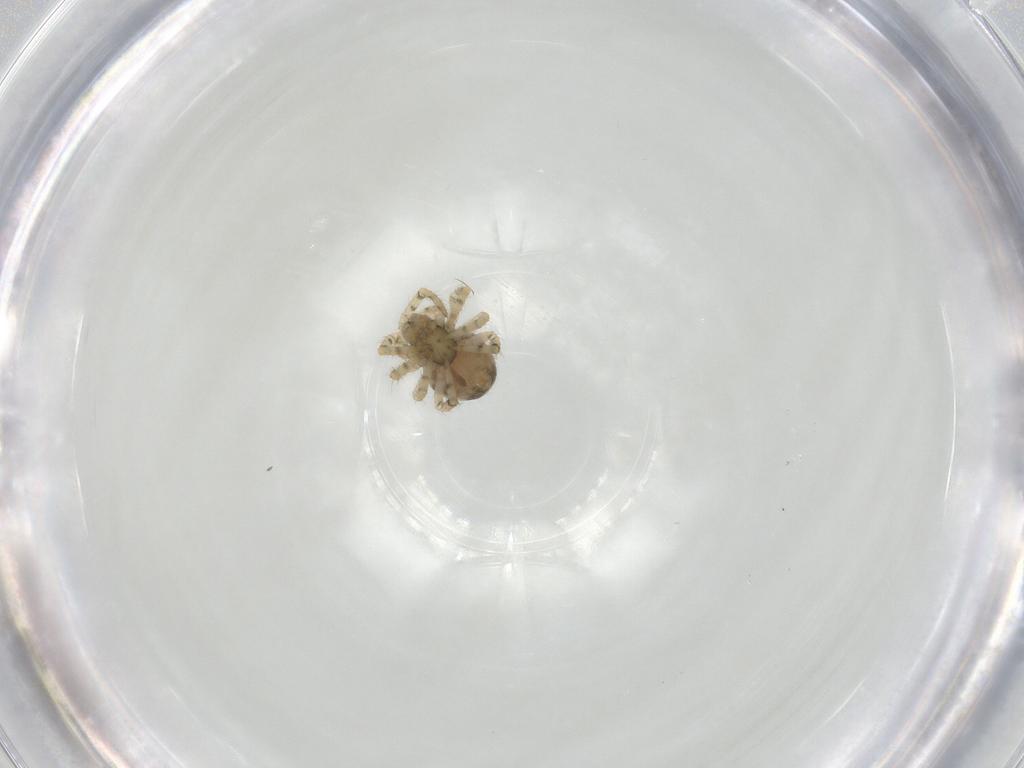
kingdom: Animalia
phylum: Arthropoda
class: Arachnida
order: Araneae
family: Theridiidae
